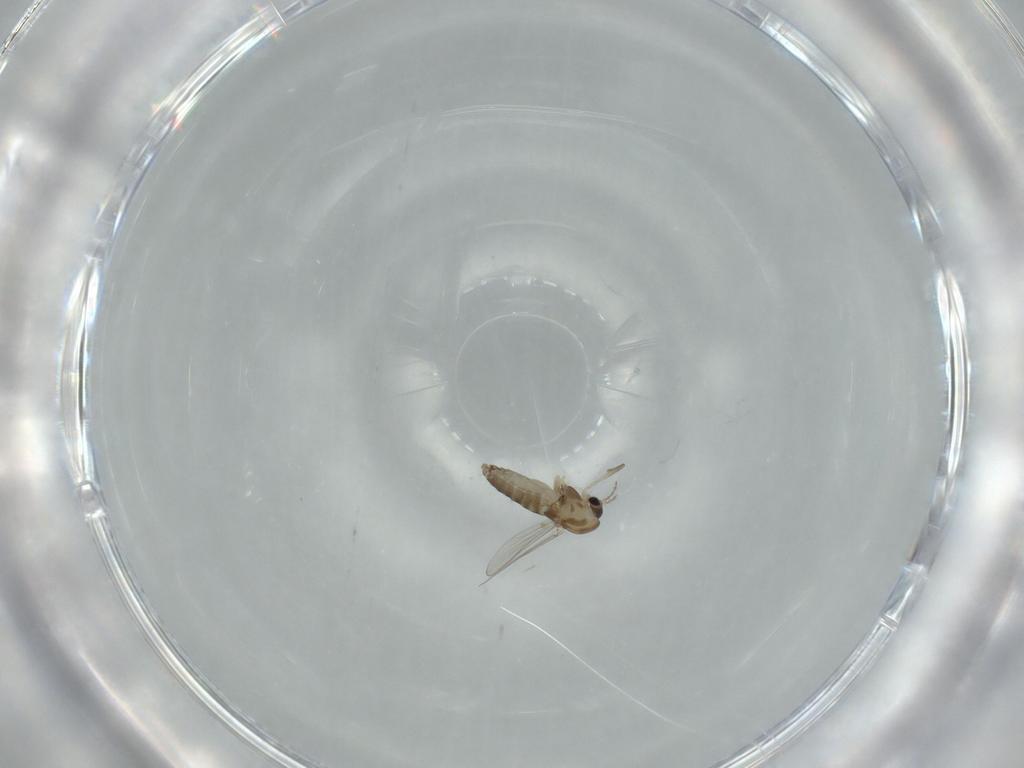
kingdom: Animalia
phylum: Arthropoda
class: Insecta
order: Diptera
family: Chironomidae
